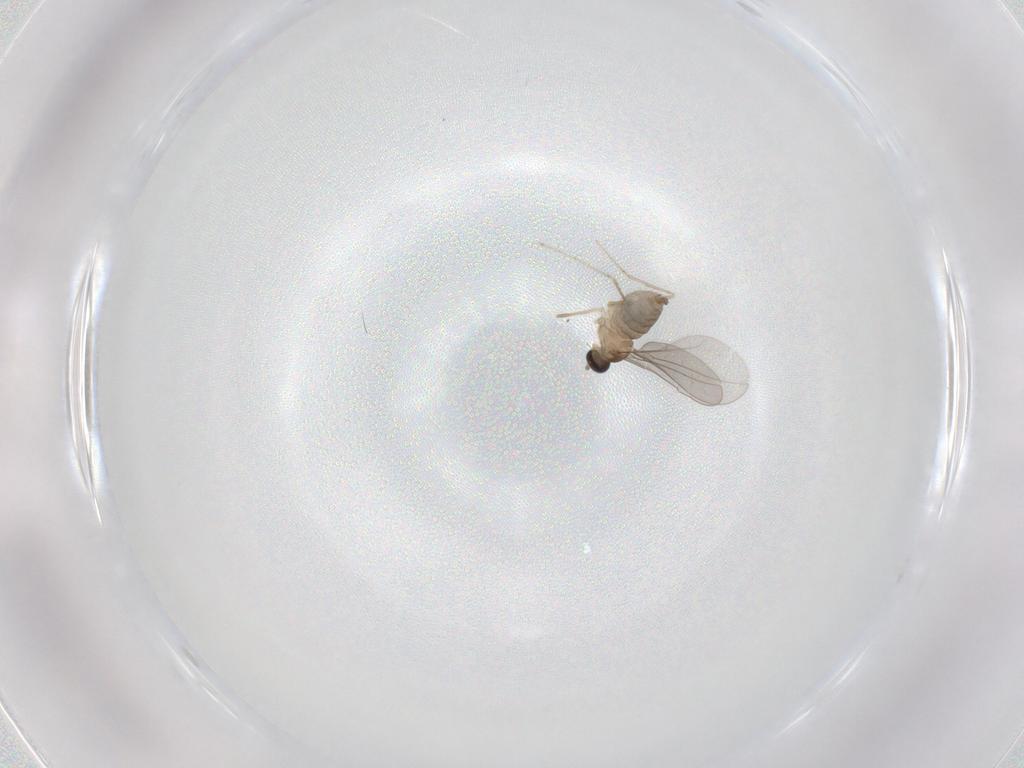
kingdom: Animalia
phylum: Arthropoda
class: Insecta
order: Diptera
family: Cecidomyiidae
